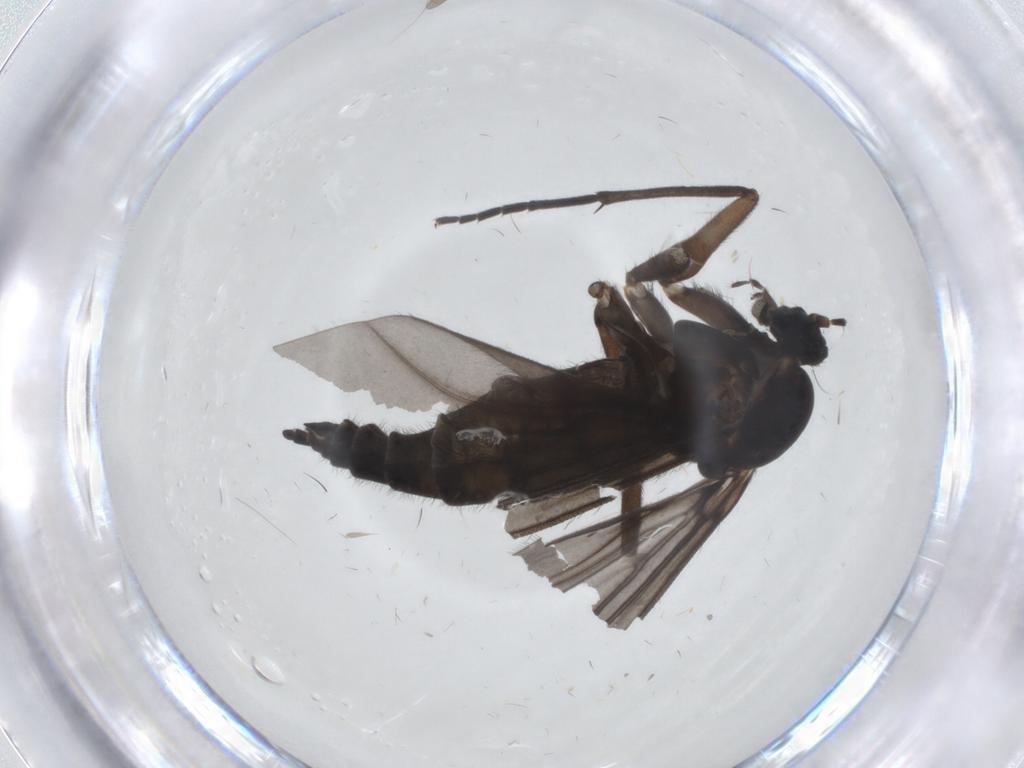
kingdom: Animalia
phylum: Arthropoda
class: Insecta
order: Diptera
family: Sciaridae
